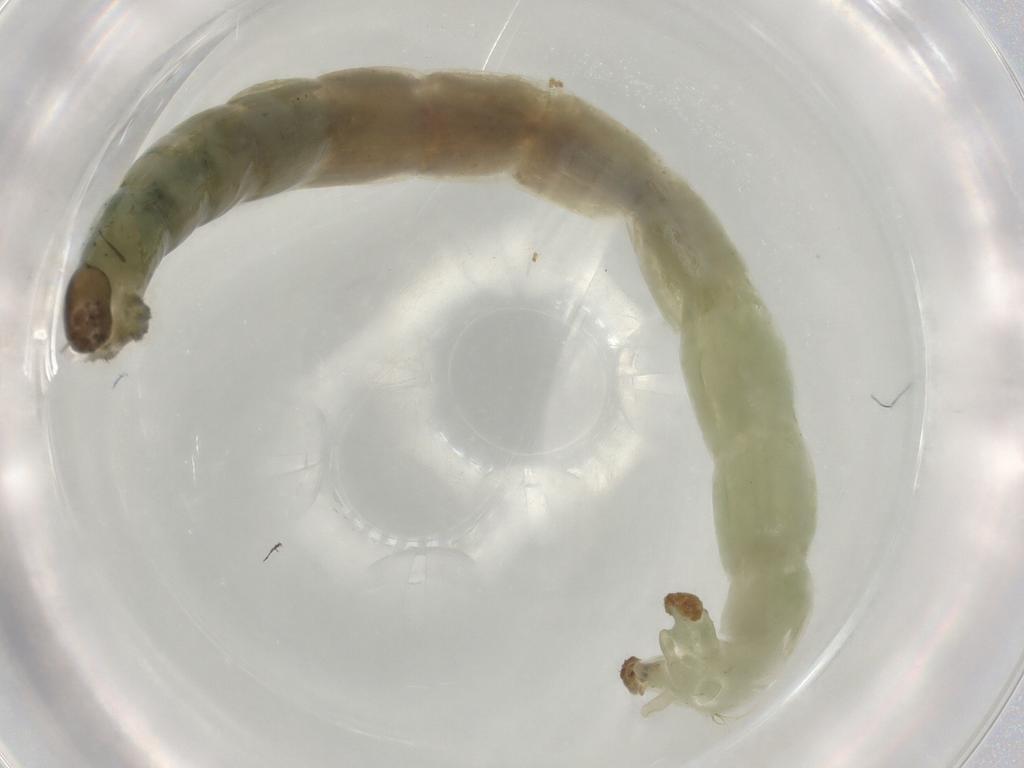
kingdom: Animalia
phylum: Arthropoda
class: Insecta
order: Diptera
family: Chironomidae
